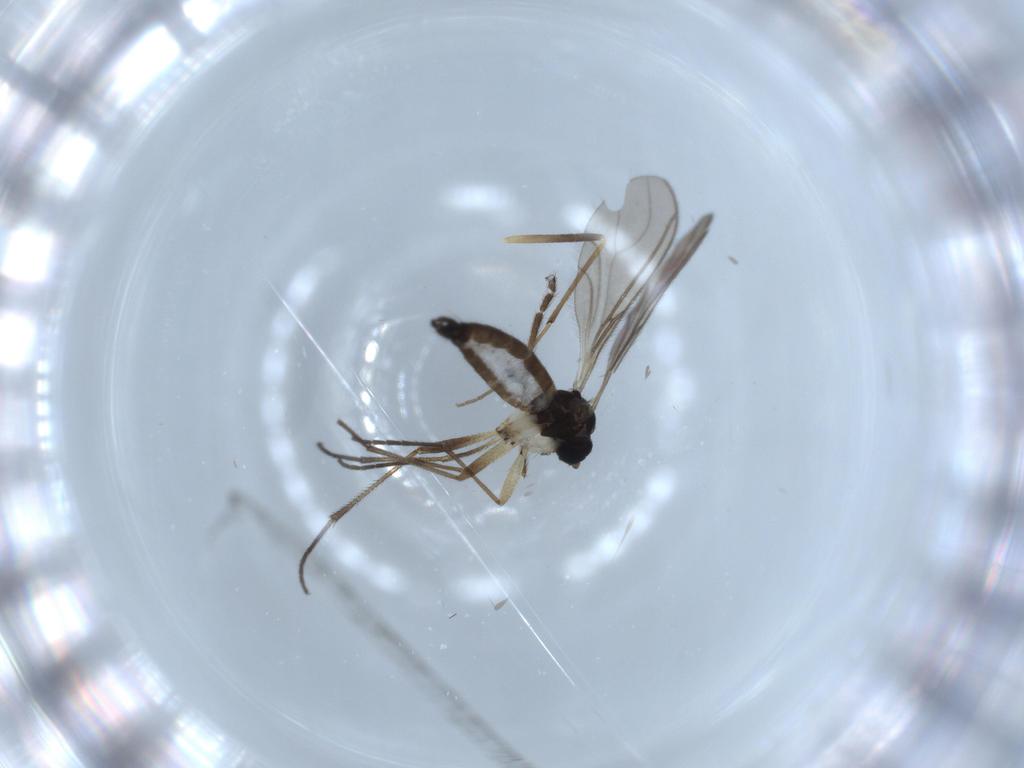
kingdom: Animalia
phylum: Arthropoda
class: Insecta
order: Diptera
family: Sciaridae
